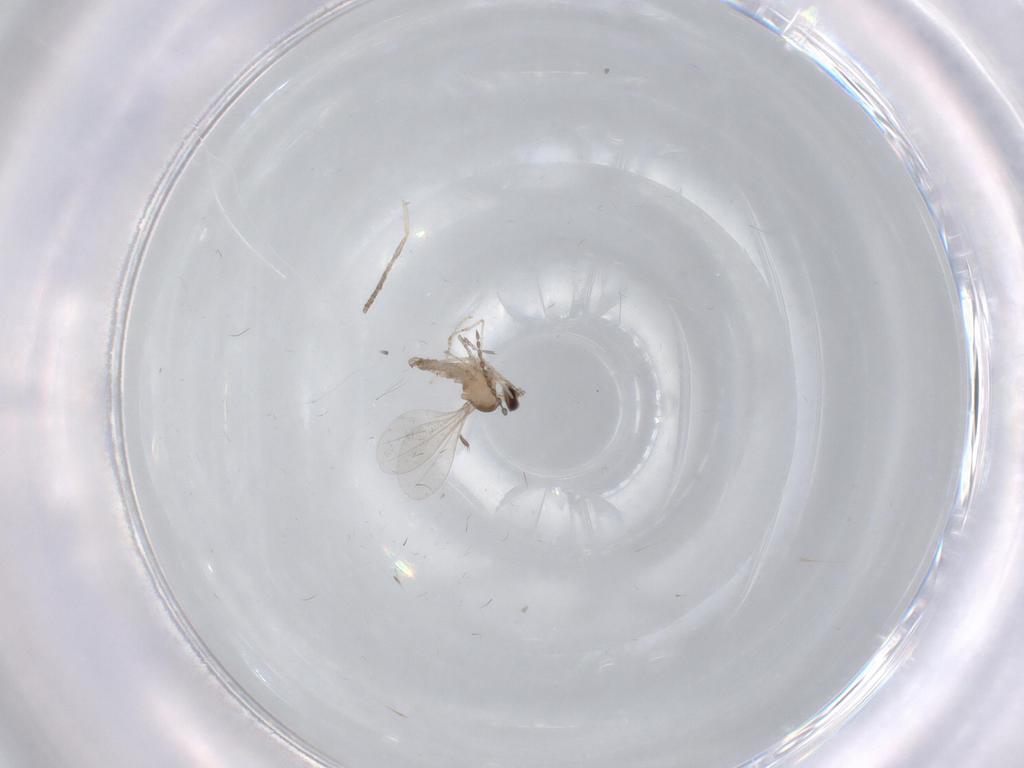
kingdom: Animalia
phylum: Arthropoda
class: Insecta
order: Diptera
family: Cecidomyiidae
